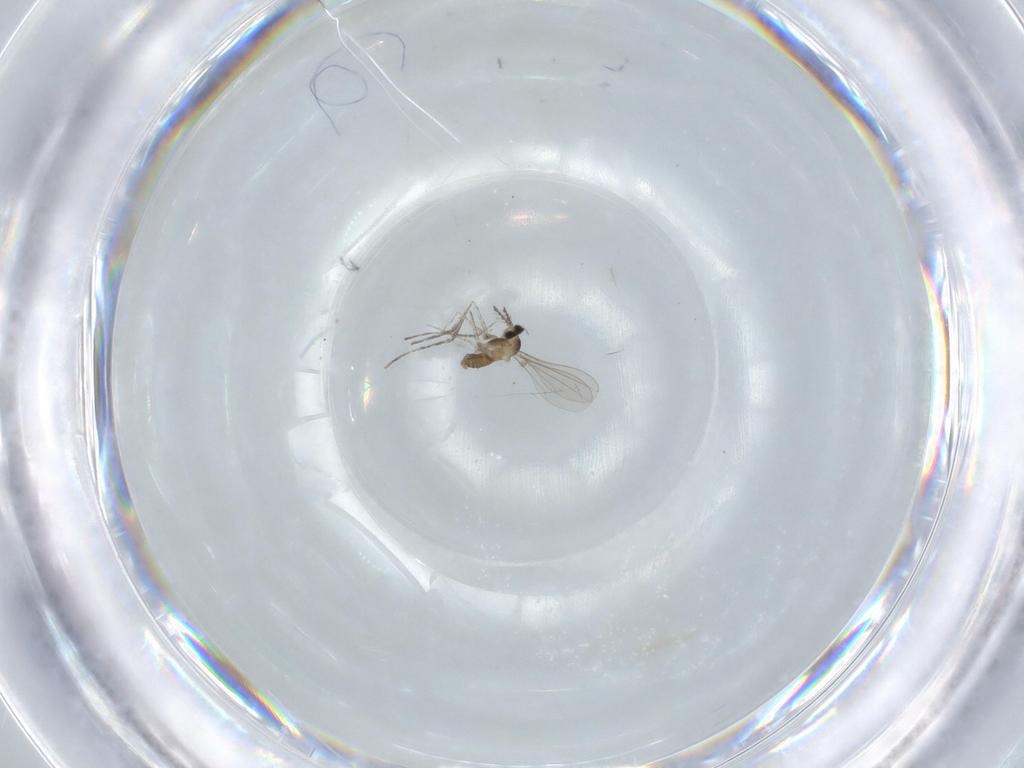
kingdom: Animalia
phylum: Arthropoda
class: Insecta
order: Diptera
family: Cecidomyiidae
